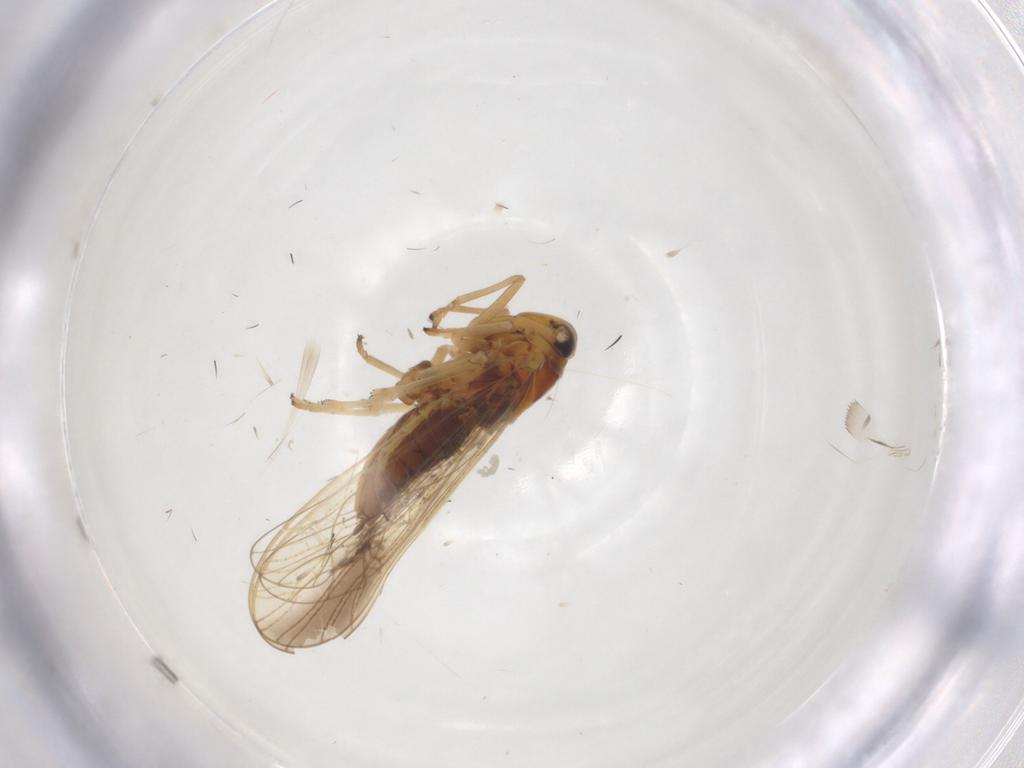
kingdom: Animalia
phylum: Arthropoda
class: Insecta
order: Hemiptera
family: Delphacidae
